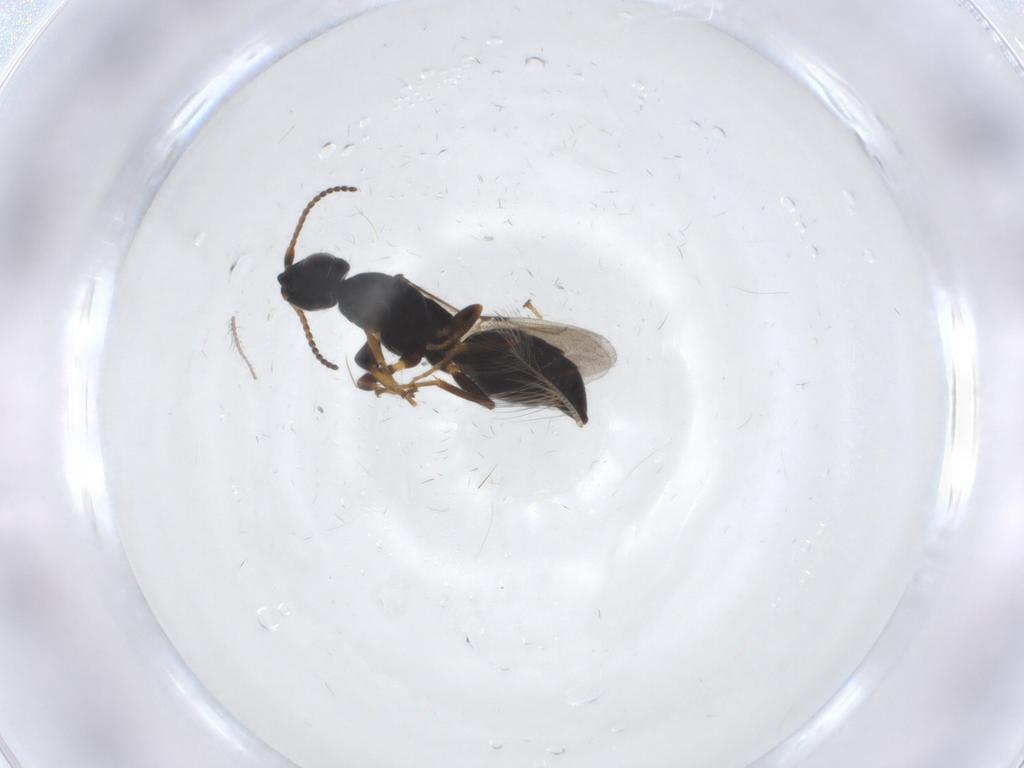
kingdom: Animalia
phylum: Arthropoda
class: Insecta
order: Hymenoptera
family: Bethylidae
